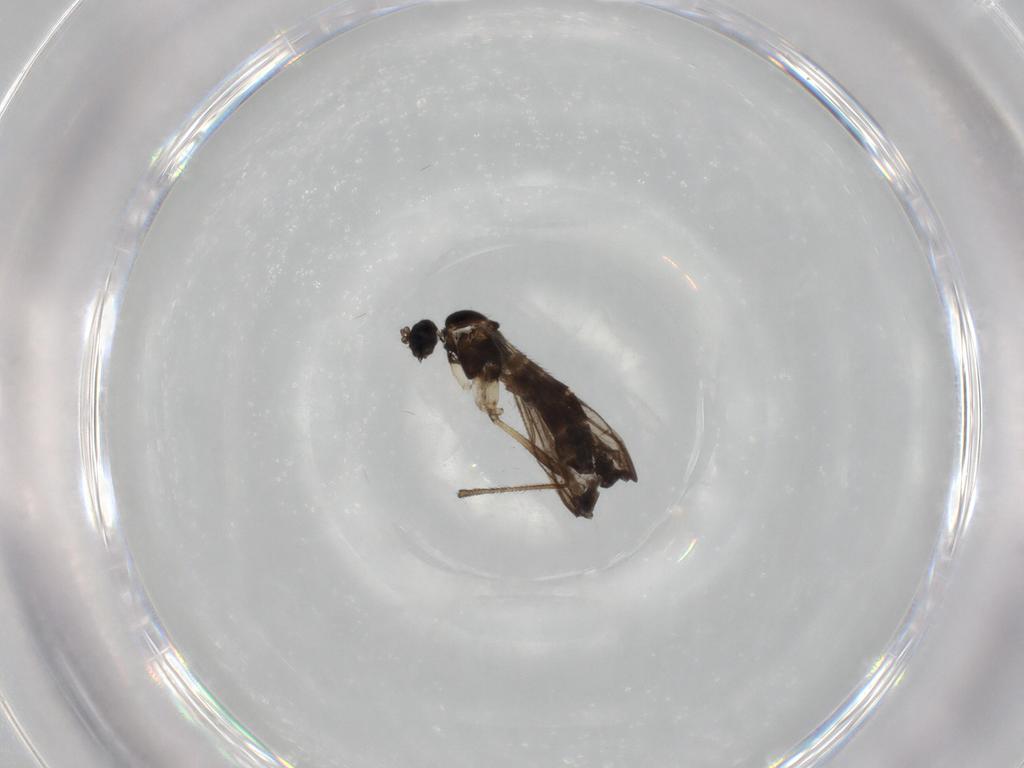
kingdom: Animalia
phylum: Arthropoda
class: Insecta
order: Diptera
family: Sciaridae
